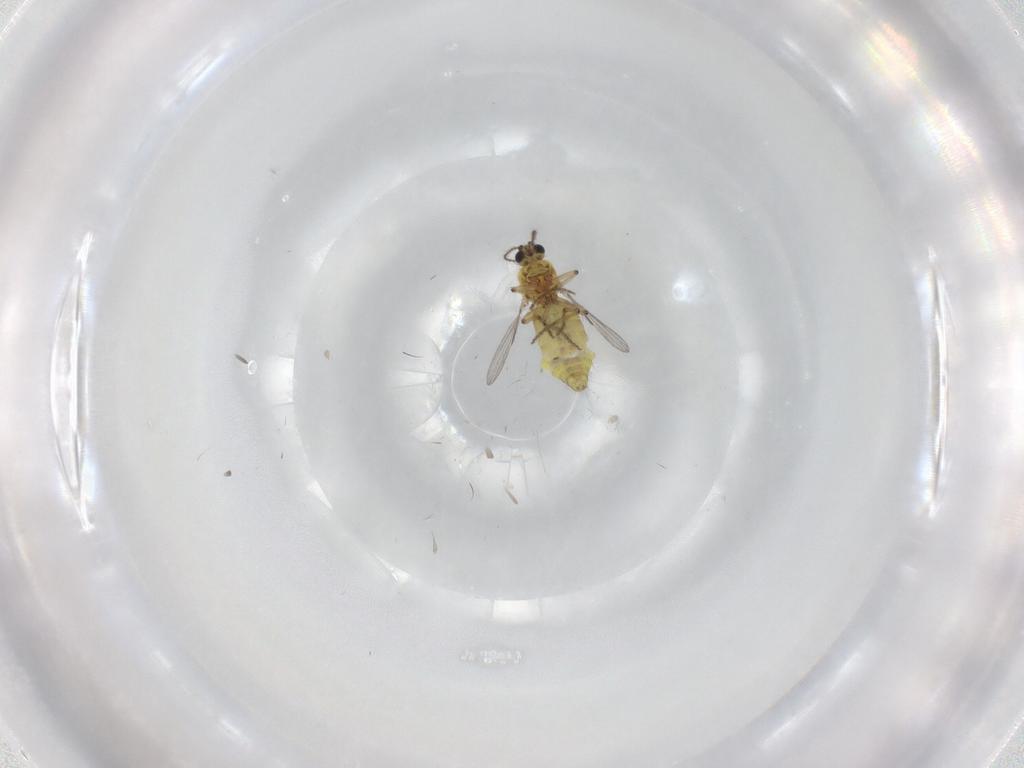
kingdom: Animalia
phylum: Arthropoda
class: Insecta
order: Diptera
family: Ceratopogonidae
